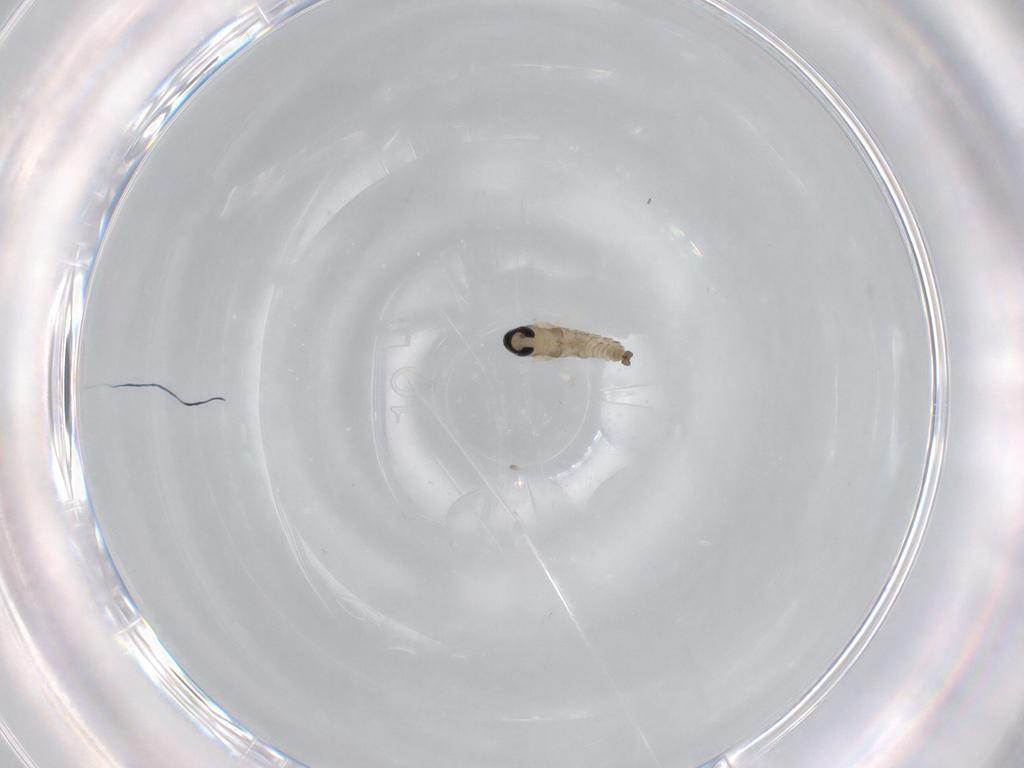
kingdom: Animalia
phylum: Arthropoda
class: Insecta
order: Diptera
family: Cecidomyiidae
